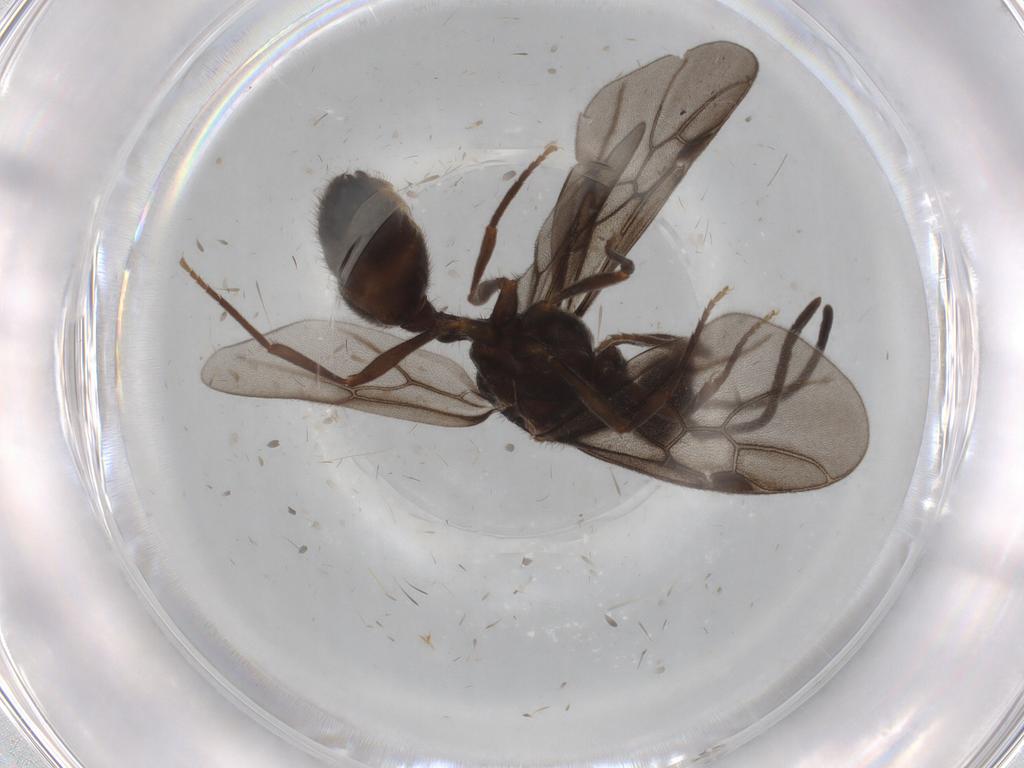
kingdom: Animalia
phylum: Arthropoda
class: Insecta
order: Hymenoptera
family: Formicidae
